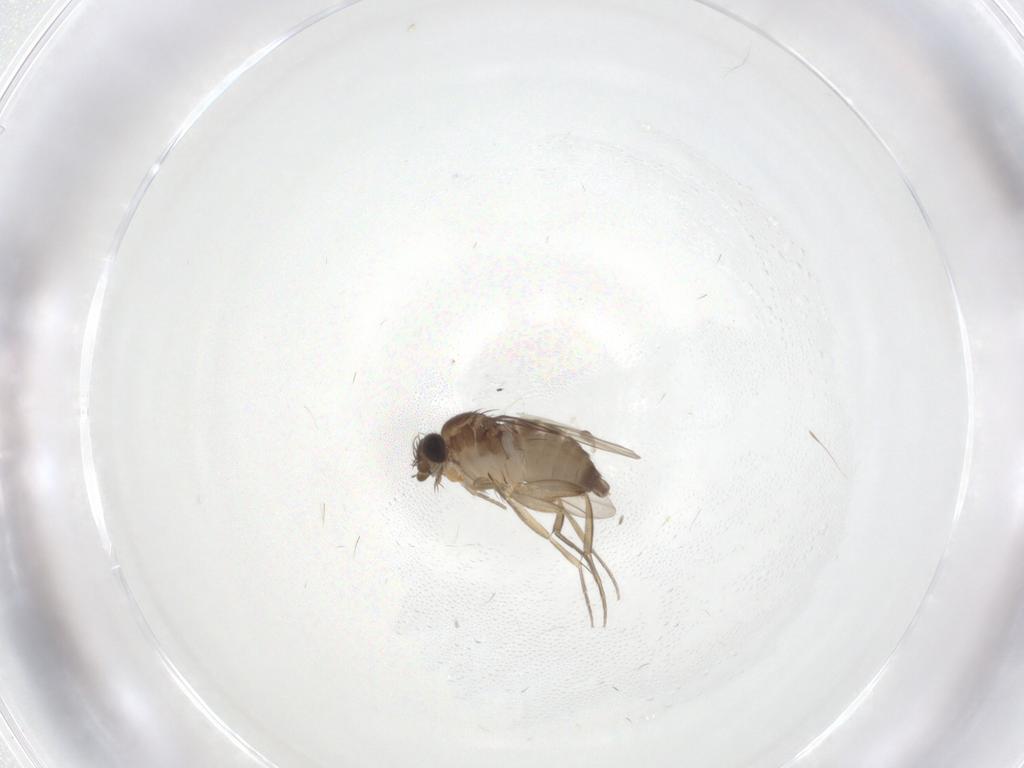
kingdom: Animalia
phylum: Arthropoda
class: Insecta
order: Diptera
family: Phoridae
